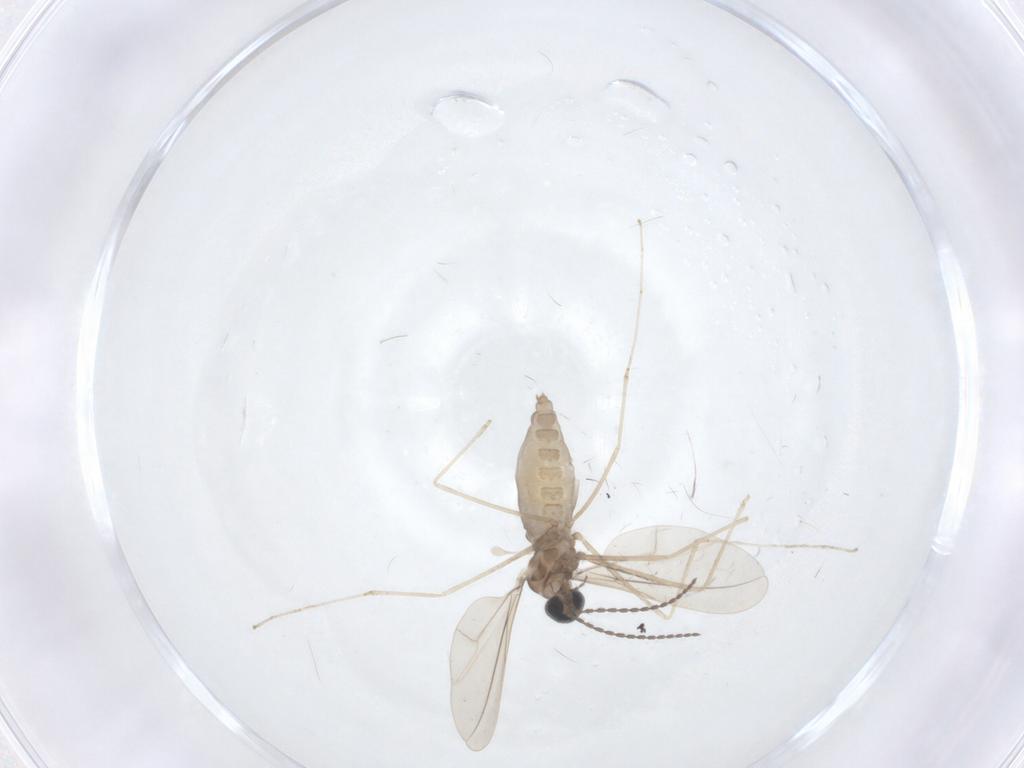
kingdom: Animalia
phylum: Arthropoda
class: Insecta
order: Diptera
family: Cecidomyiidae
